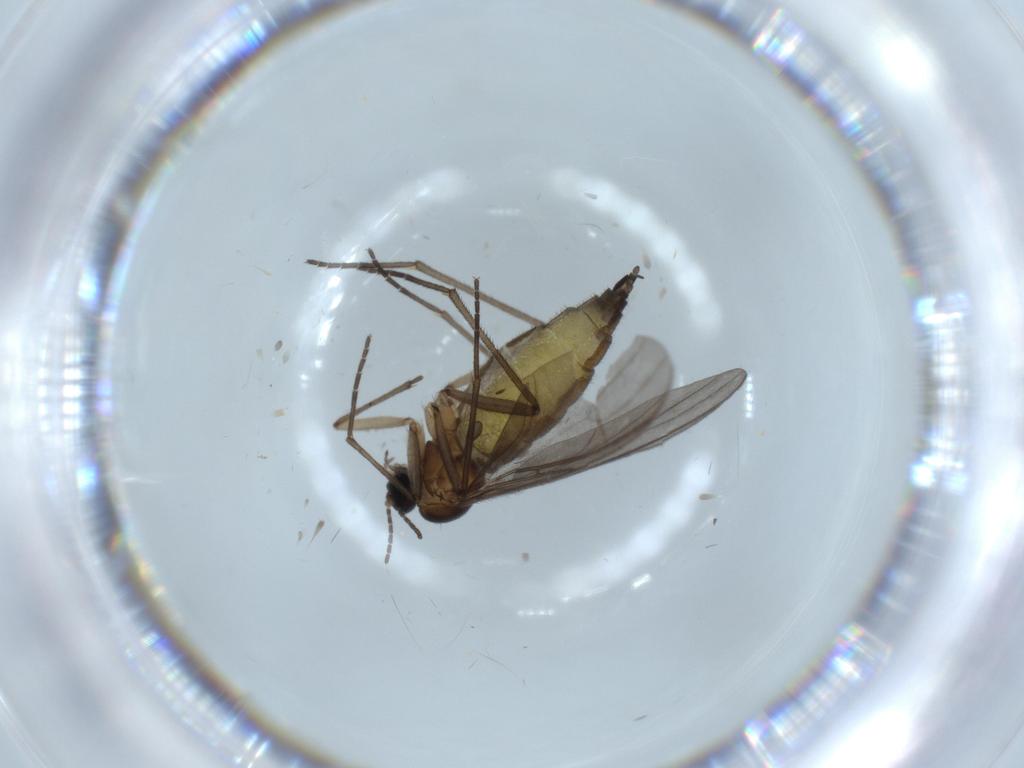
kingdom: Animalia
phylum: Arthropoda
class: Insecta
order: Diptera
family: Sciaridae
